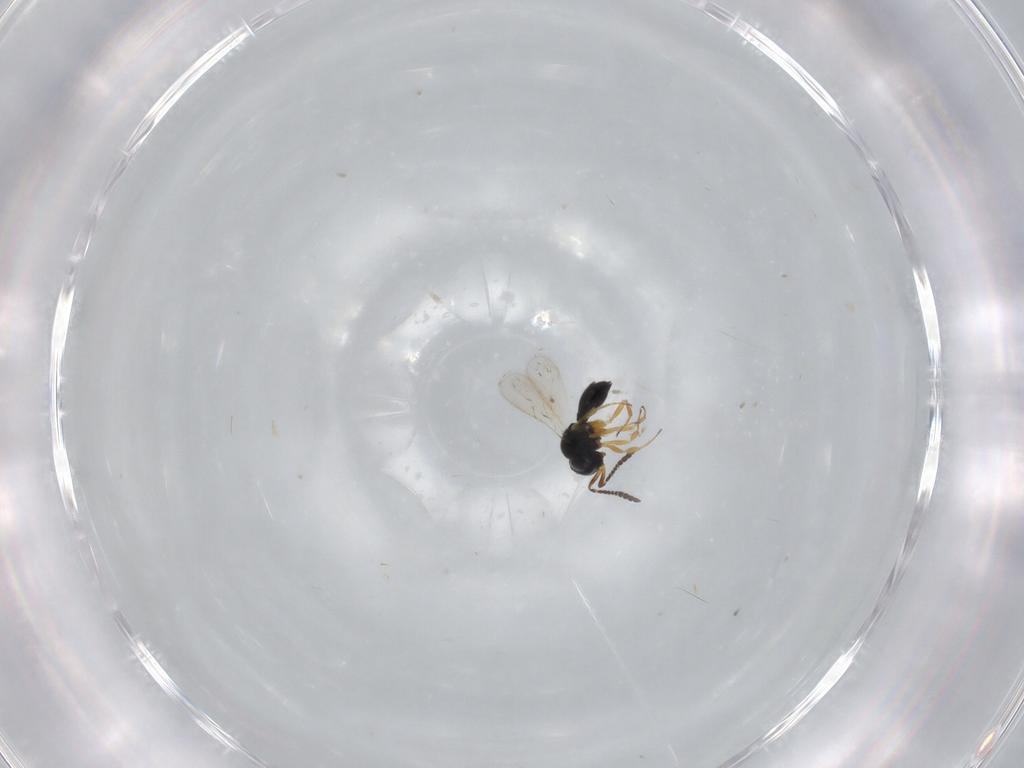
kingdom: Animalia
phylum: Arthropoda
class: Insecta
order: Hymenoptera
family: Scelionidae
